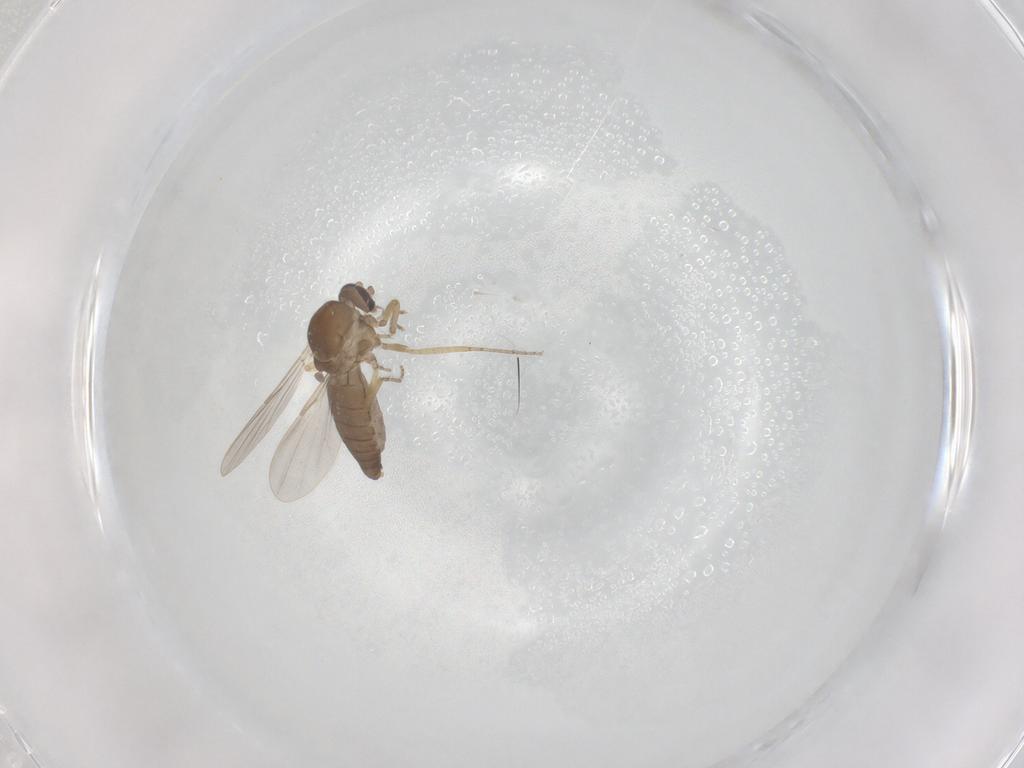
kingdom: Animalia
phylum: Arthropoda
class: Insecta
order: Diptera
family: Ceratopogonidae
